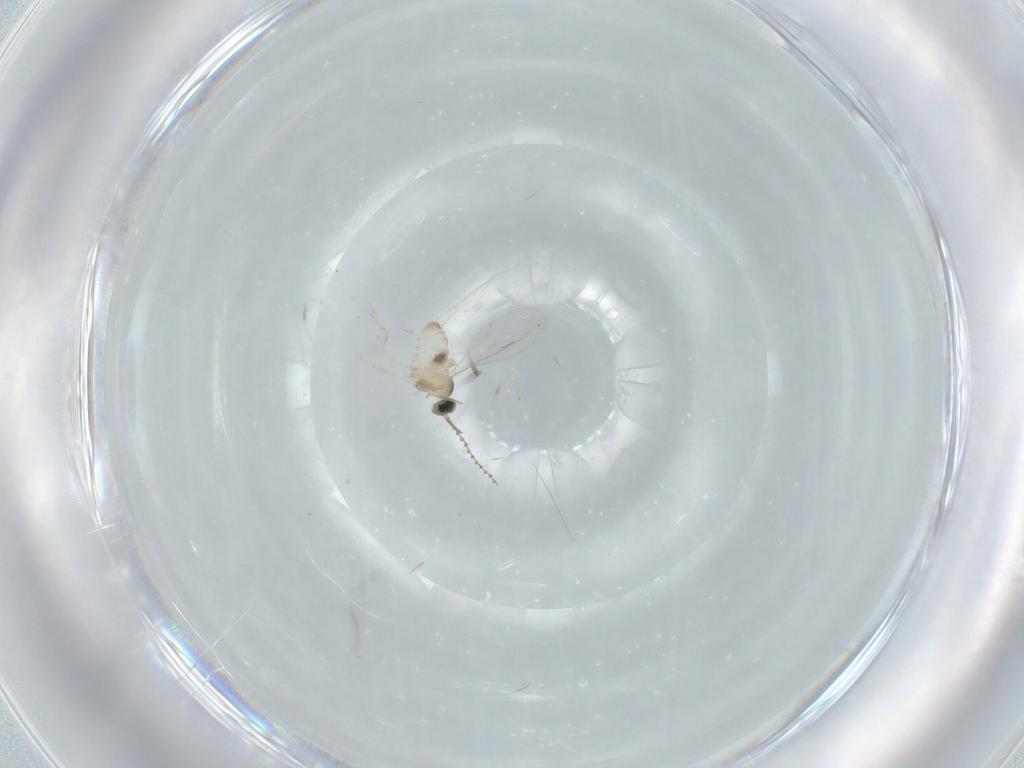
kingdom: Animalia
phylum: Arthropoda
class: Insecta
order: Diptera
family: Cecidomyiidae
